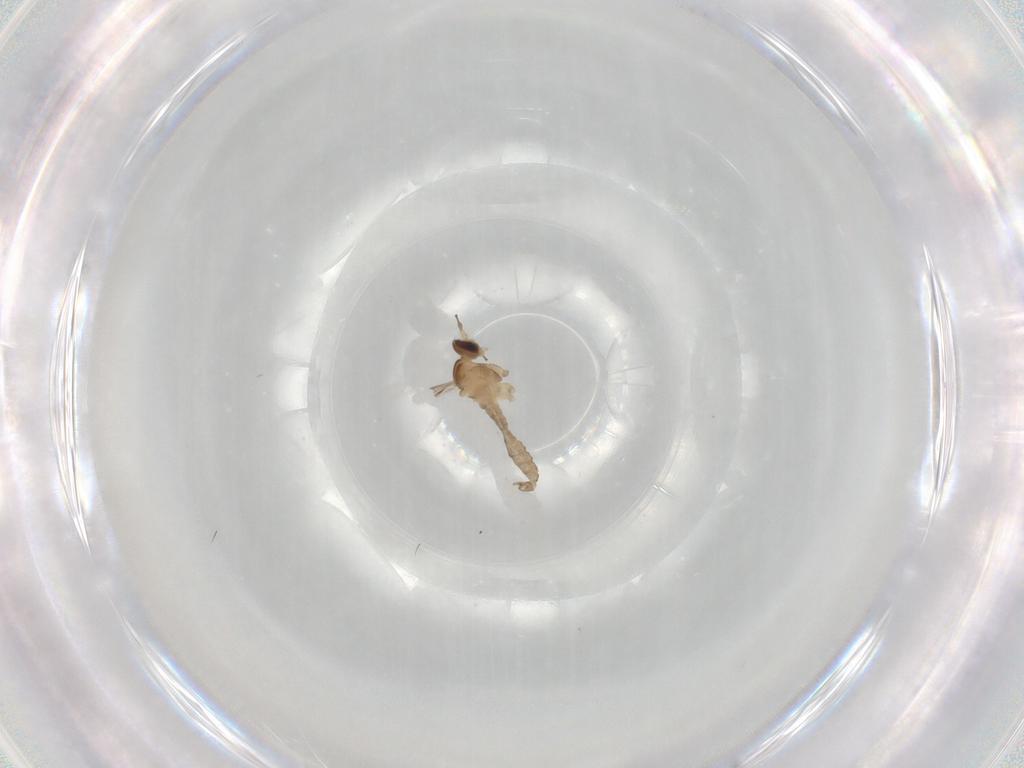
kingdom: Animalia
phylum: Arthropoda
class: Insecta
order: Diptera
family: Cecidomyiidae
